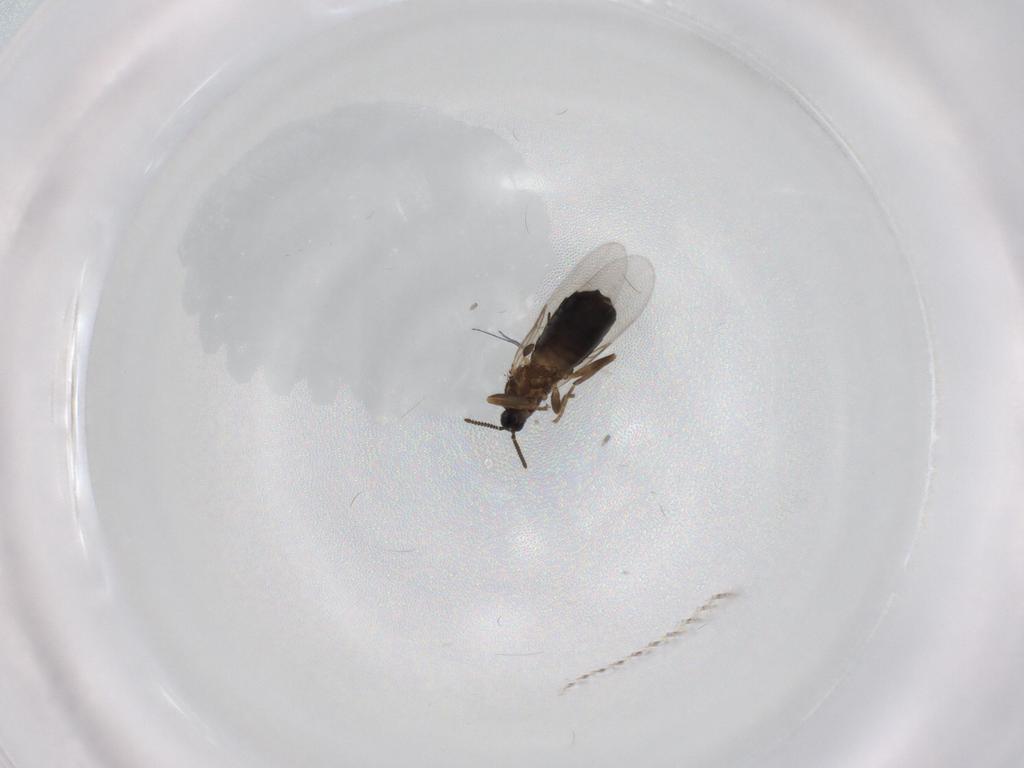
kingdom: Animalia
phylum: Arthropoda
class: Insecta
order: Diptera
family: Scatopsidae
